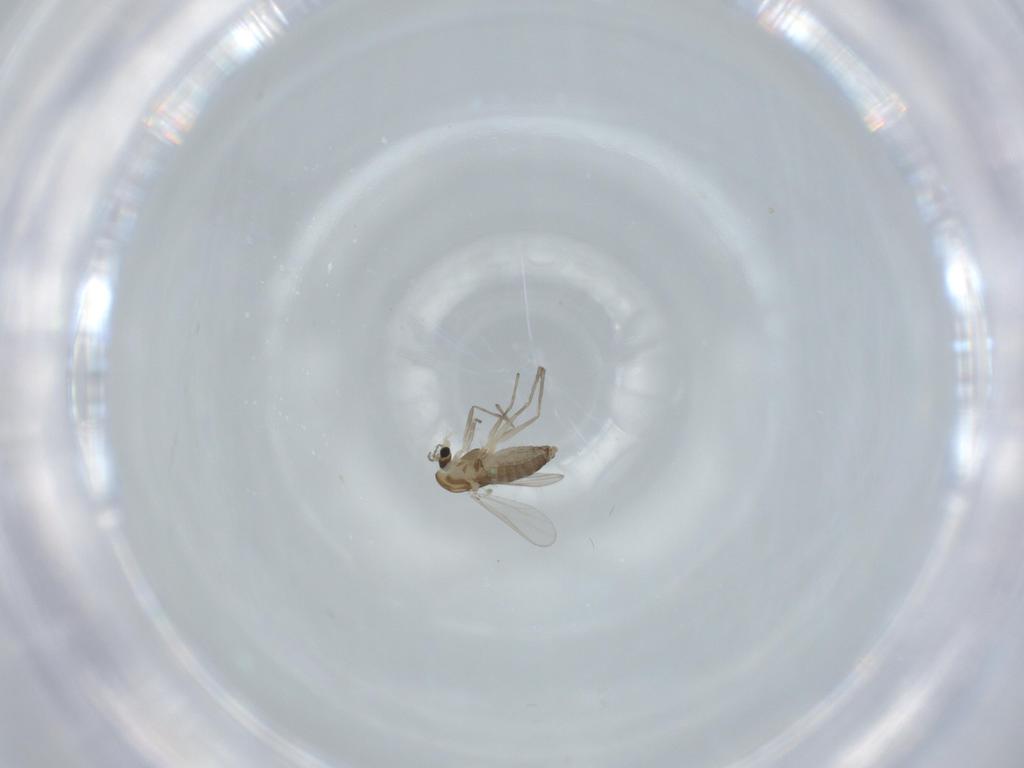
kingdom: Animalia
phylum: Arthropoda
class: Insecta
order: Diptera
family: Chironomidae
